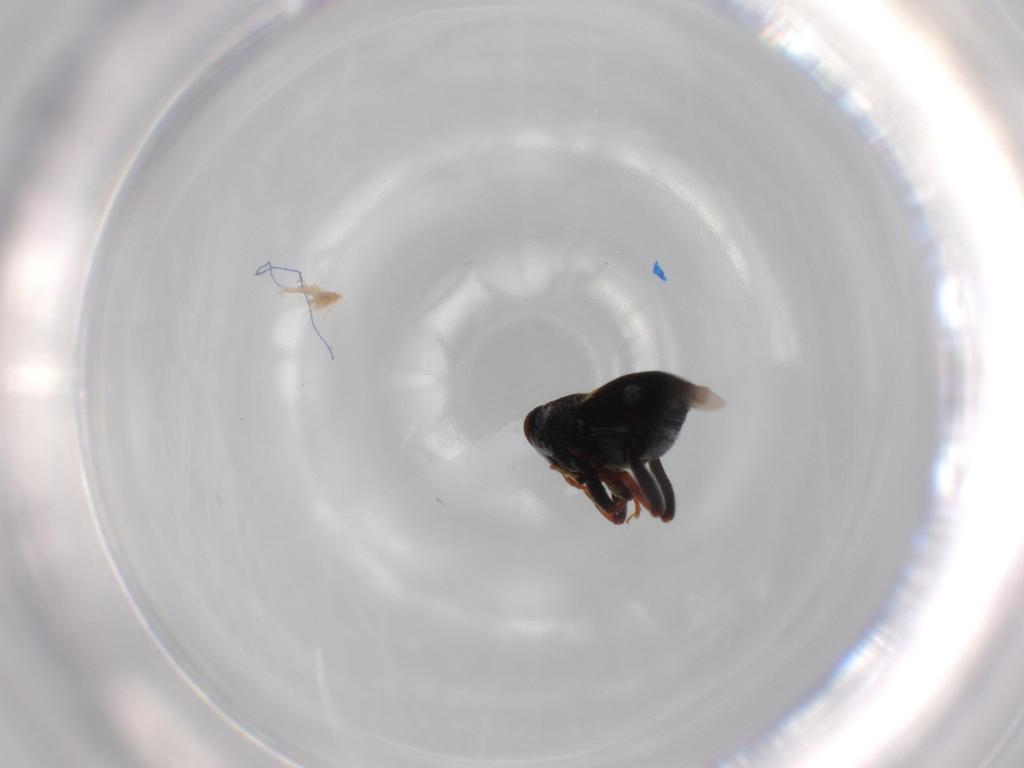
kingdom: Animalia
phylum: Arthropoda
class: Insecta
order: Coleoptera
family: Curculionidae
